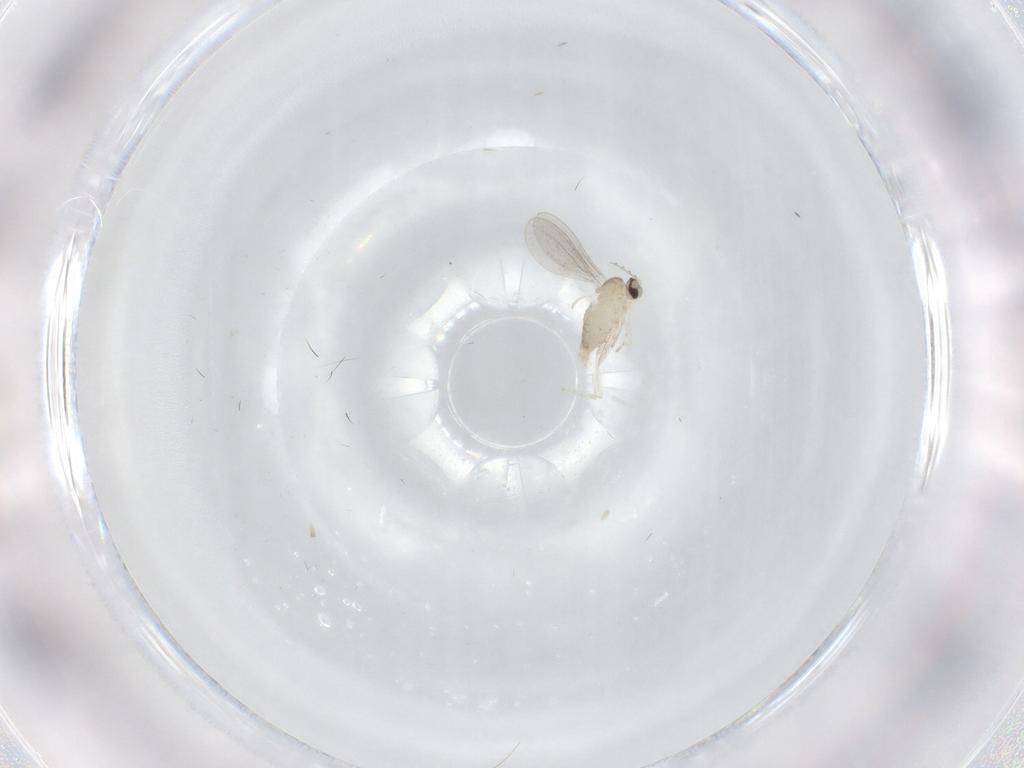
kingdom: Animalia
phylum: Arthropoda
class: Insecta
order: Diptera
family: Cecidomyiidae
